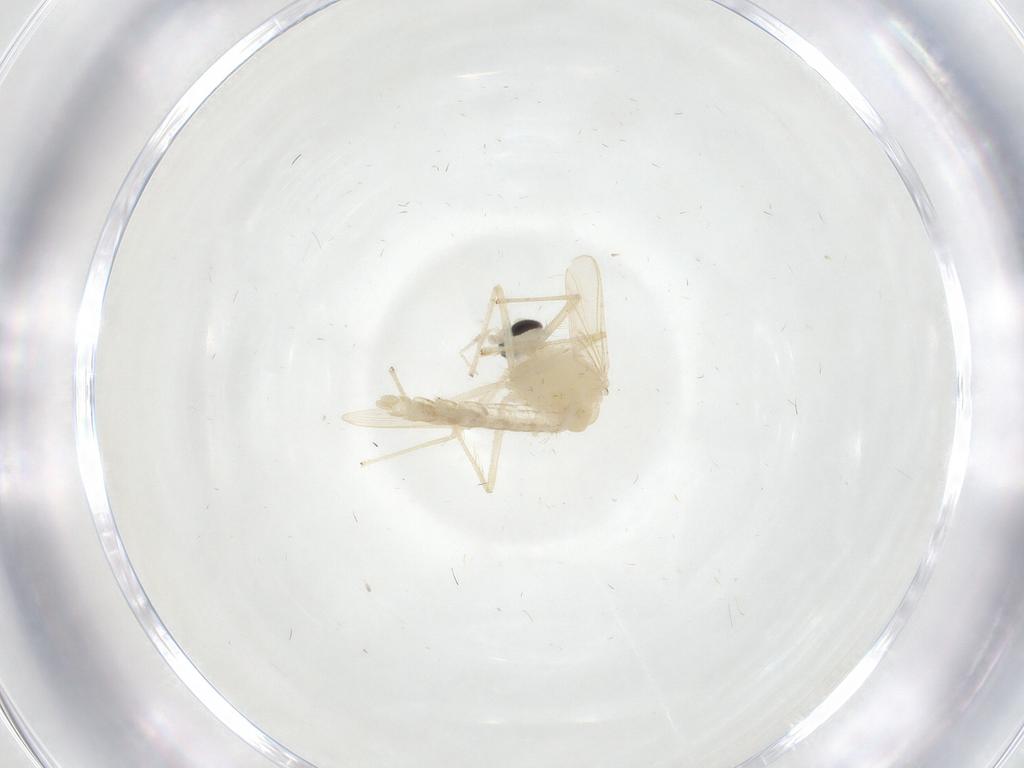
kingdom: Animalia
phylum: Arthropoda
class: Insecta
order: Diptera
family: Chironomidae
